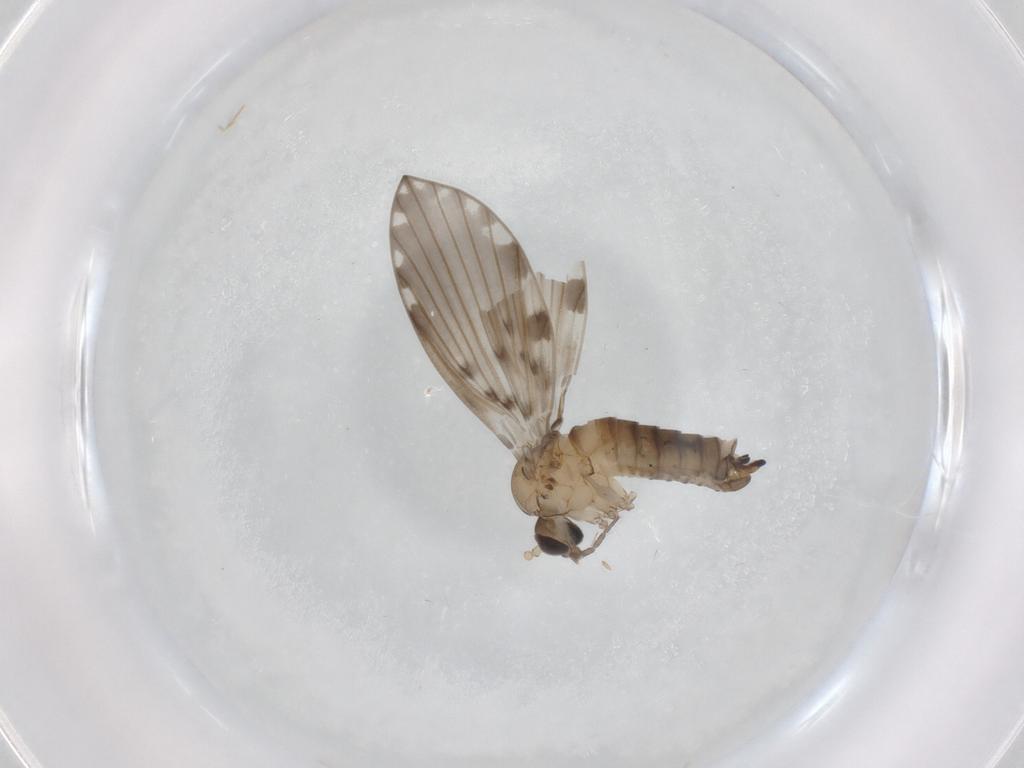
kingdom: Animalia
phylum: Arthropoda
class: Insecta
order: Diptera
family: Psychodidae
